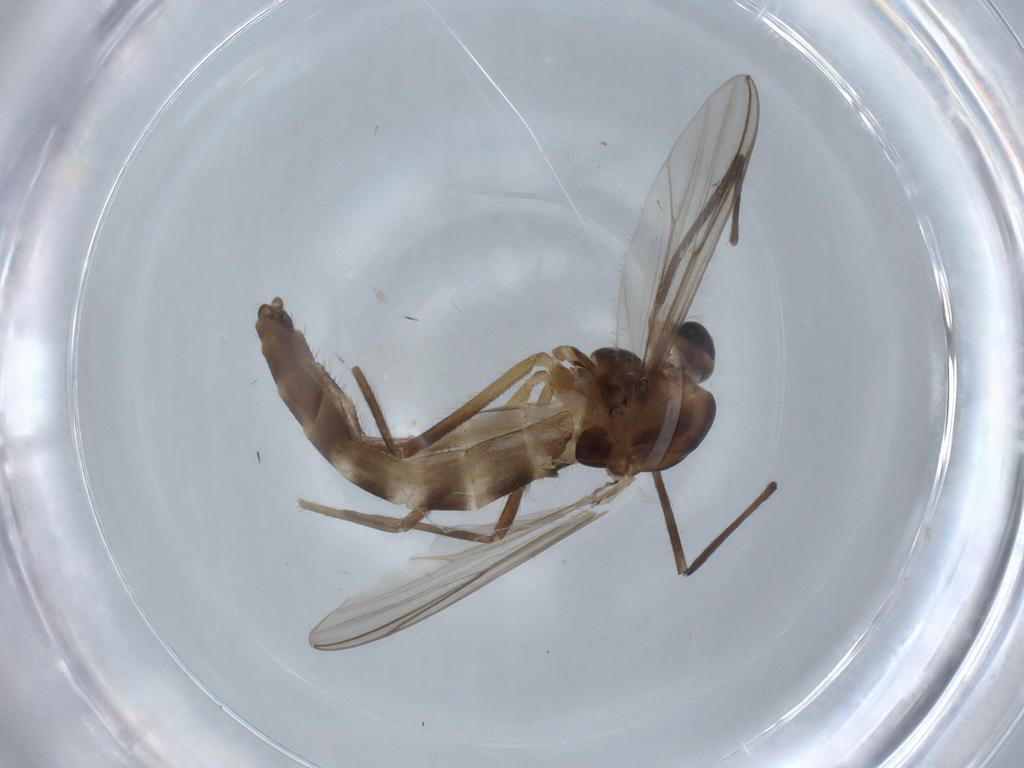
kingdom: Animalia
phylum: Arthropoda
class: Insecta
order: Diptera
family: Chironomidae
